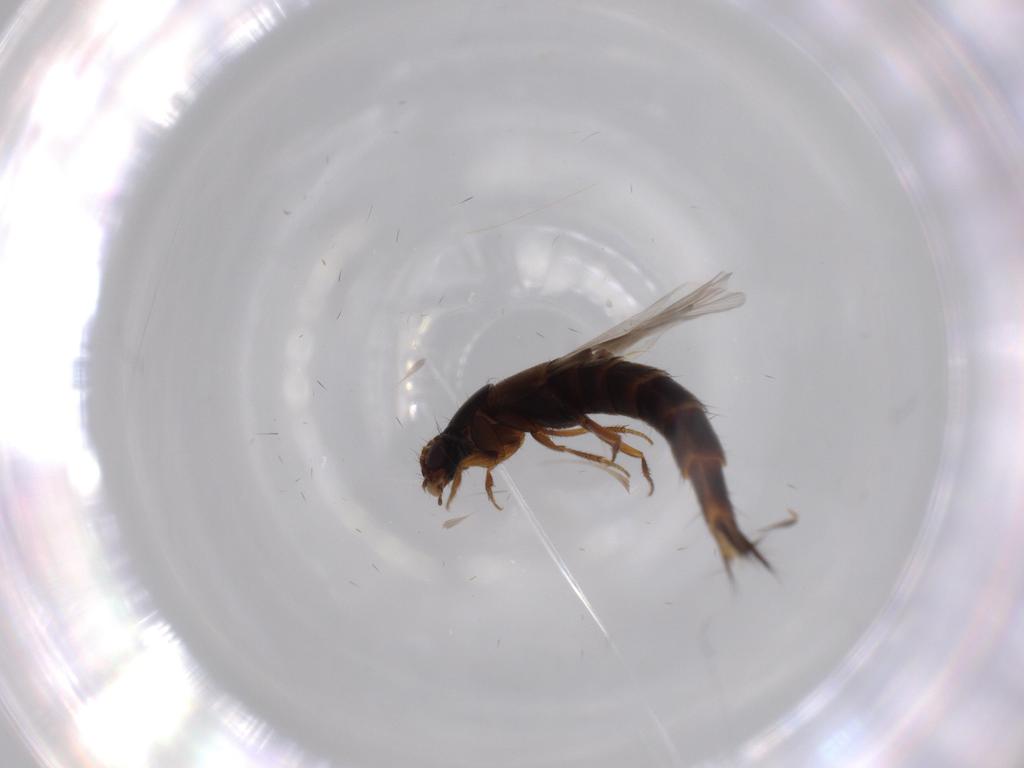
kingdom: Animalia
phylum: Arthropoda
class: Insecta
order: Coleoptera
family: Staphylinidae
